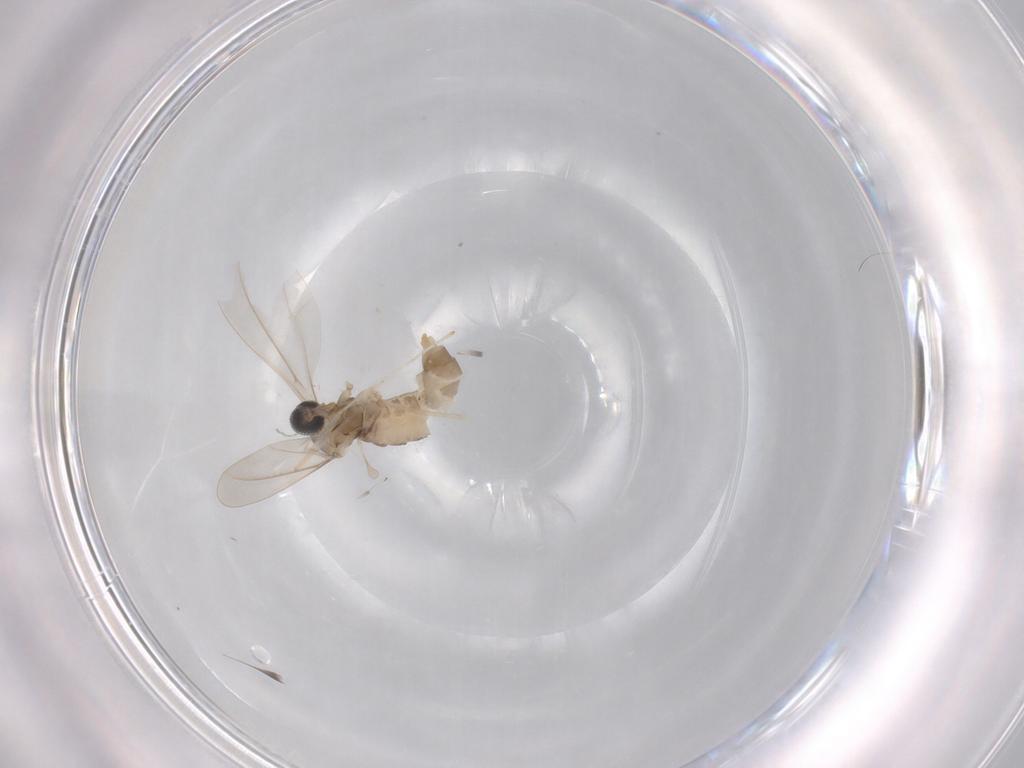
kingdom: Animalia
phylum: Arthropoda
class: Insecta
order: Diptera
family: Cecidomyiidae
